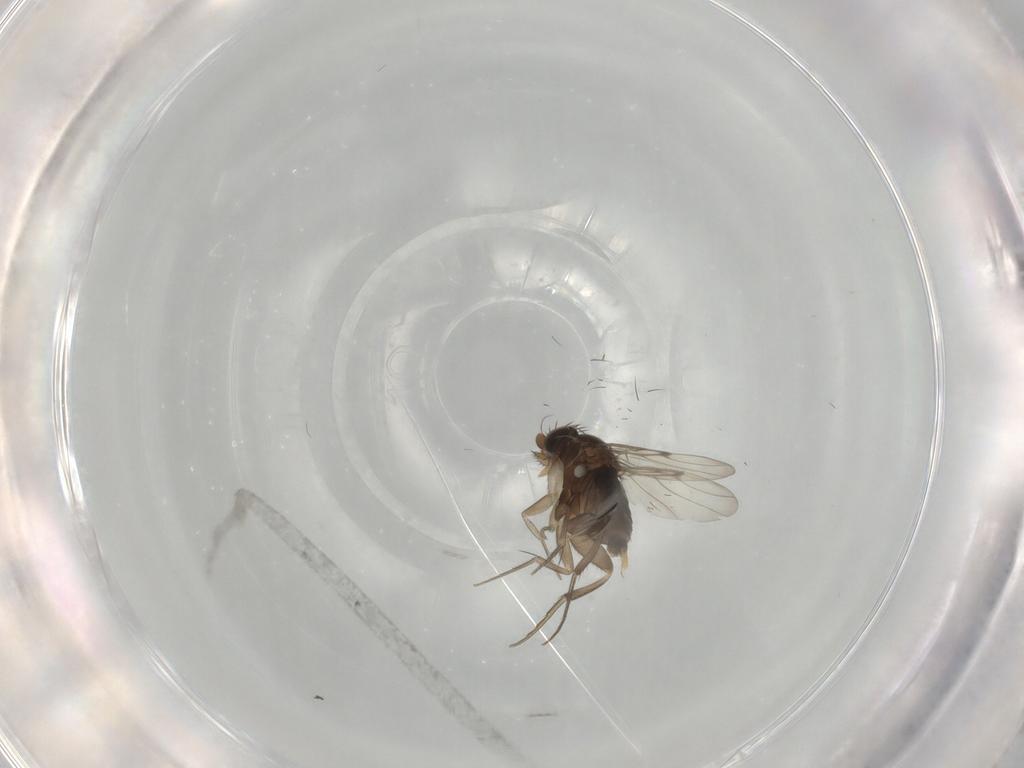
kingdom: Animalia
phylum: Arthropoda
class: Insecta
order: Diptera
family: Phoridae
